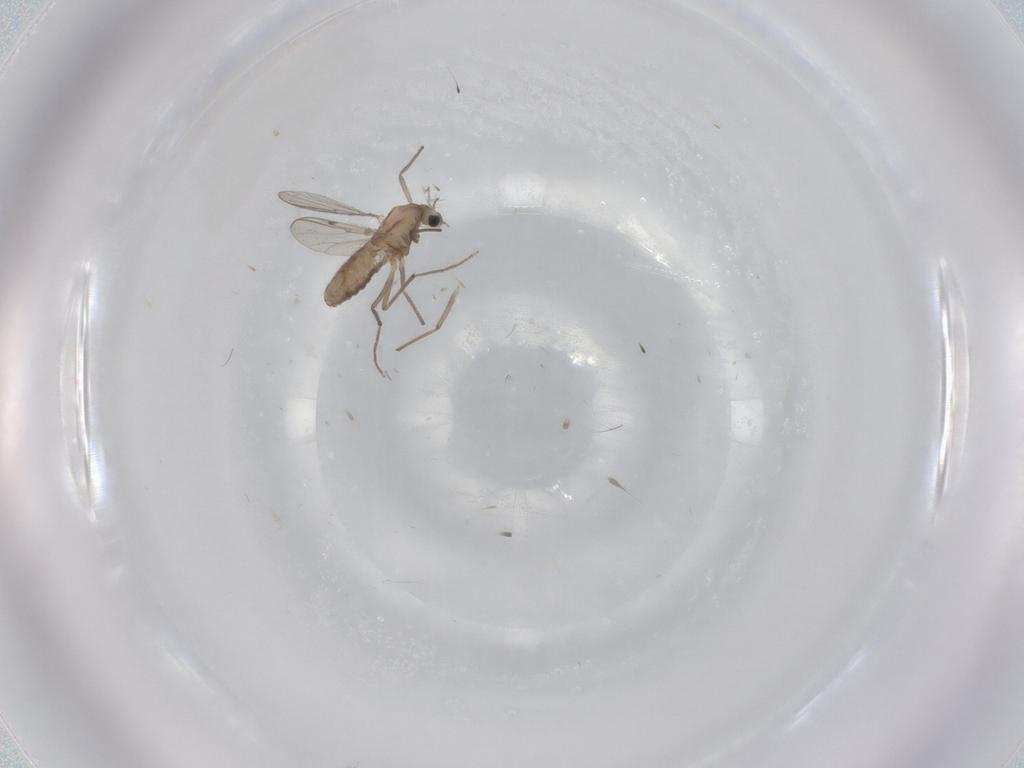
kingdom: Animalia
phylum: Arthropoda
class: Insecta
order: Diptera
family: Chironomidae
